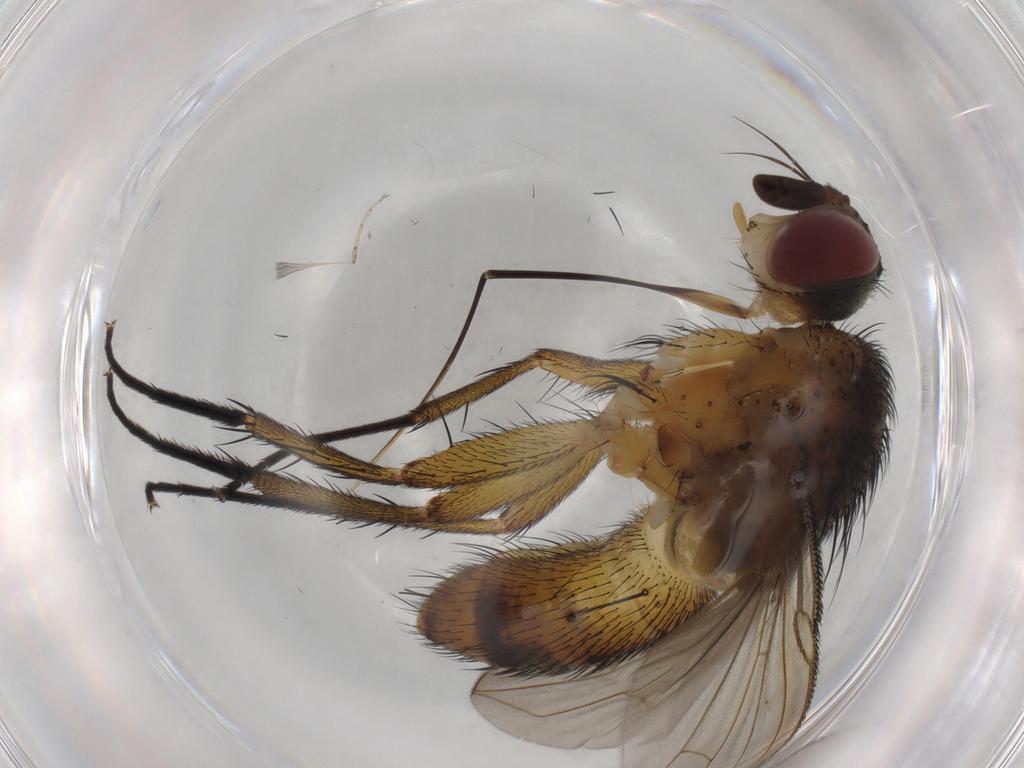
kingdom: Animalia
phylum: Arthropoda
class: Insecta
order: Diptera
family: Tachinidae
